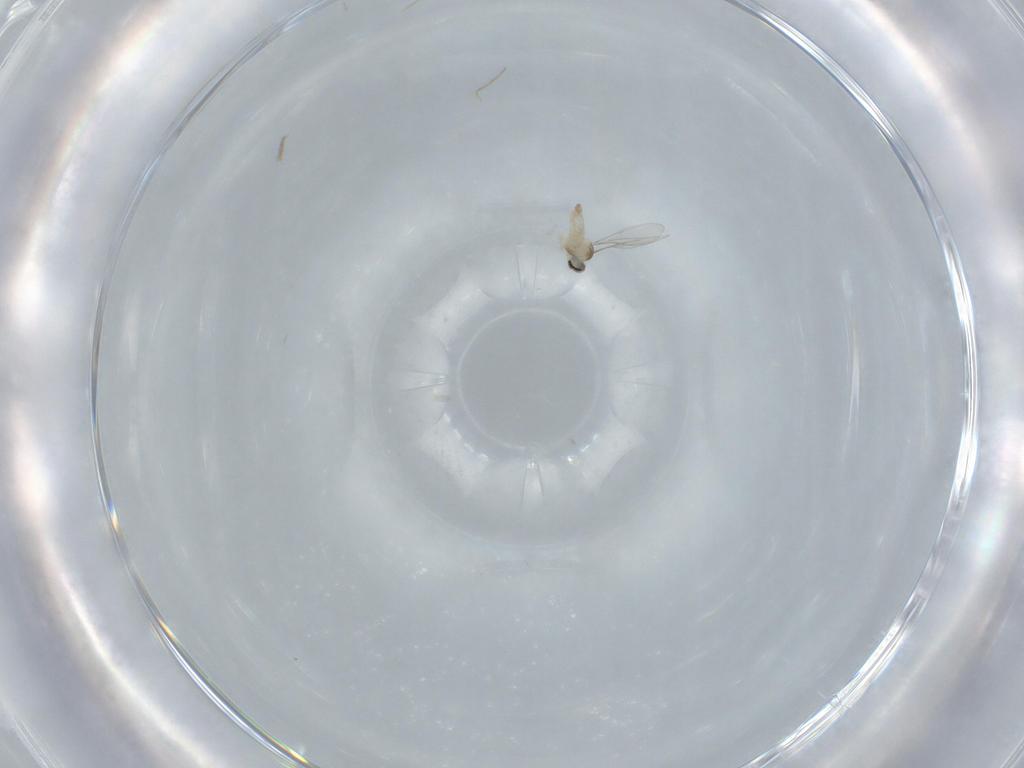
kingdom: Animalia
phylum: Arthropoda
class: Insecta
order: Diptera
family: Cecidomyiidae
